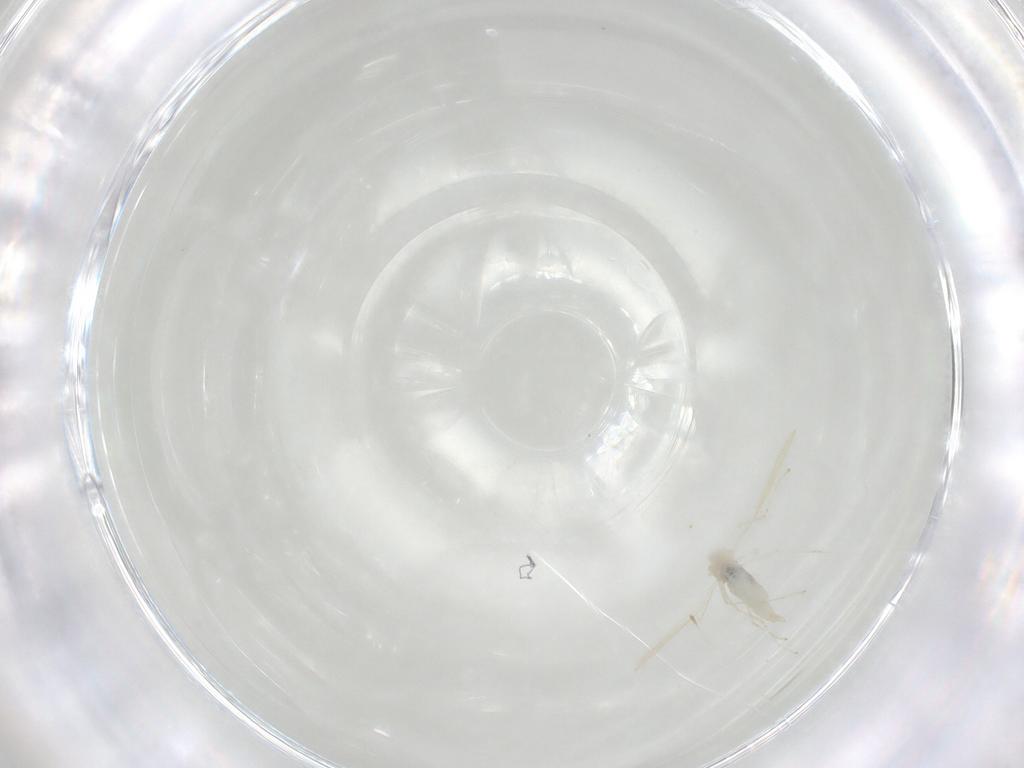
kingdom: Animalia
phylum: Arthropoda
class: Insecta
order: Diptera
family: Cecidomyiidae
